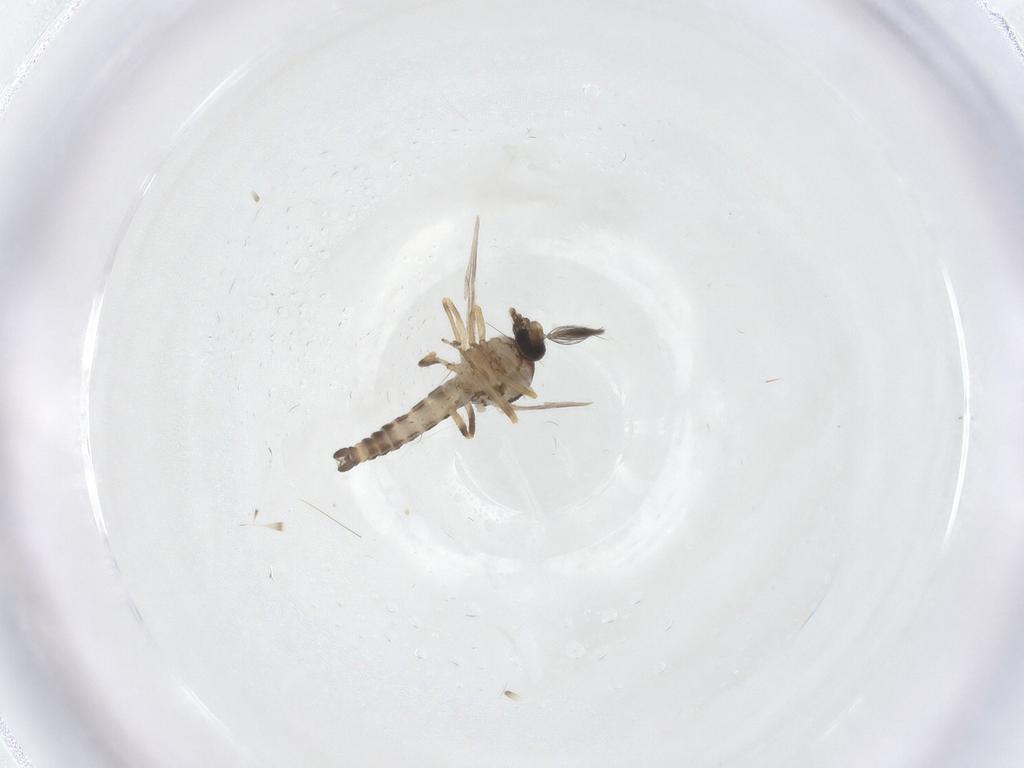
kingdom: Animalia
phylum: Arthropoda
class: Insecta
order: Diptera
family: Ceratopogonidae
